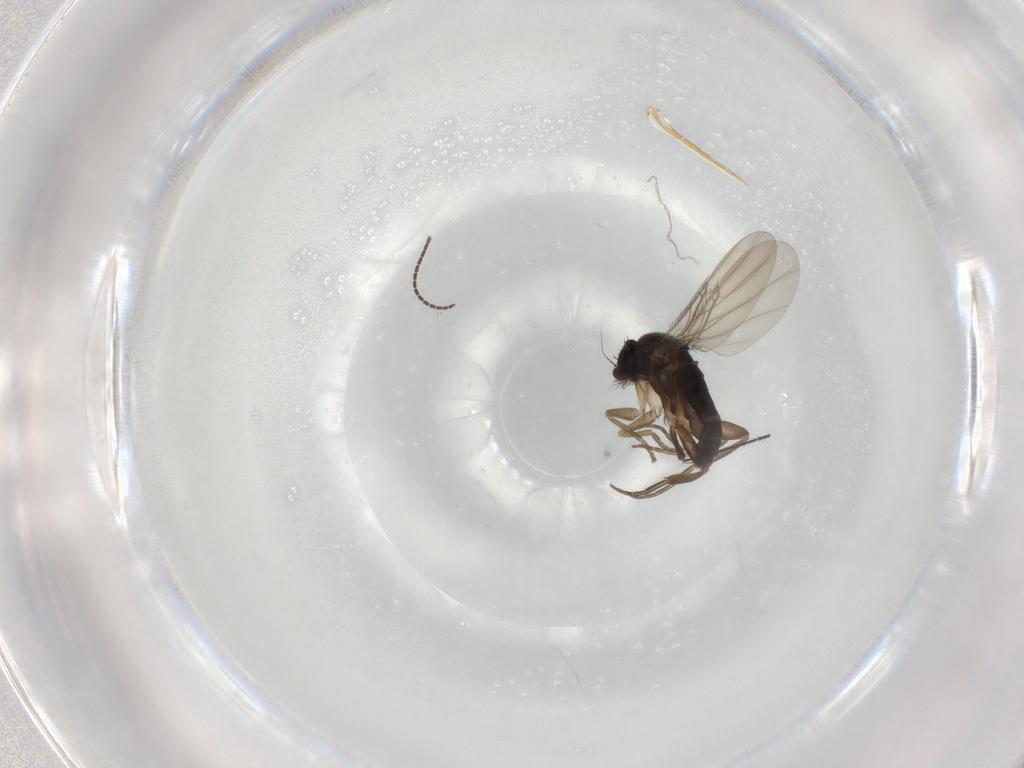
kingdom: Animalia
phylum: Arthropoda
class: Insecta
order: Diptera
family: Phoridae
